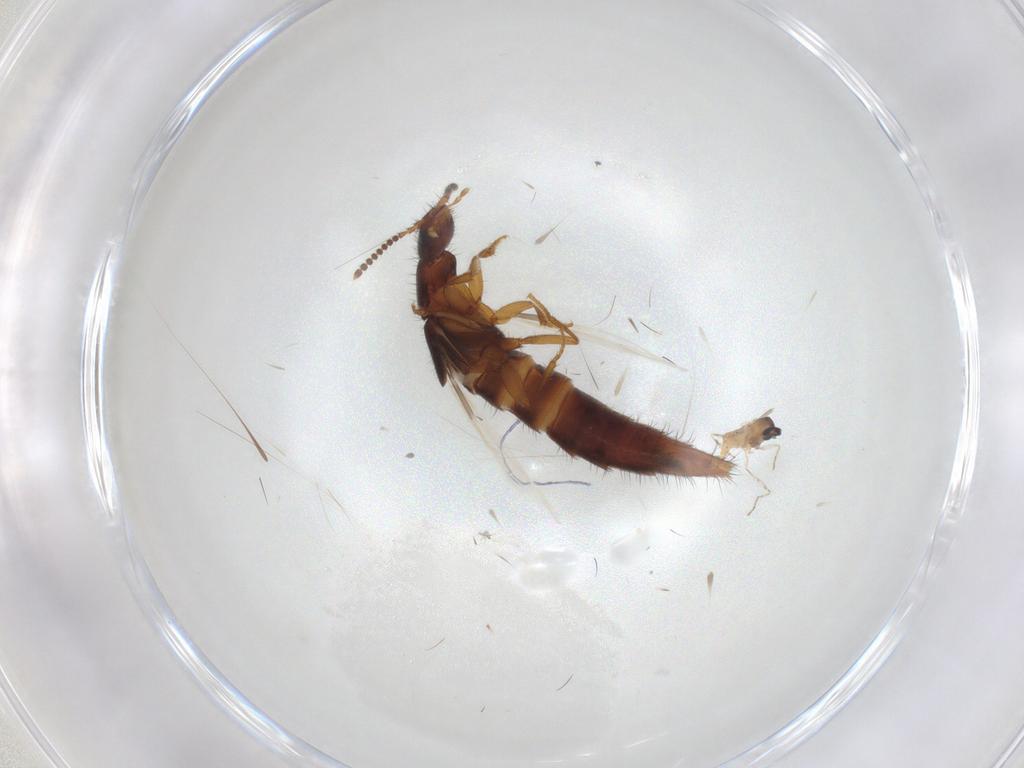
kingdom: Animalia
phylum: Arthropoda
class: Insecta
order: Coleoptera
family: Staphylinidae
